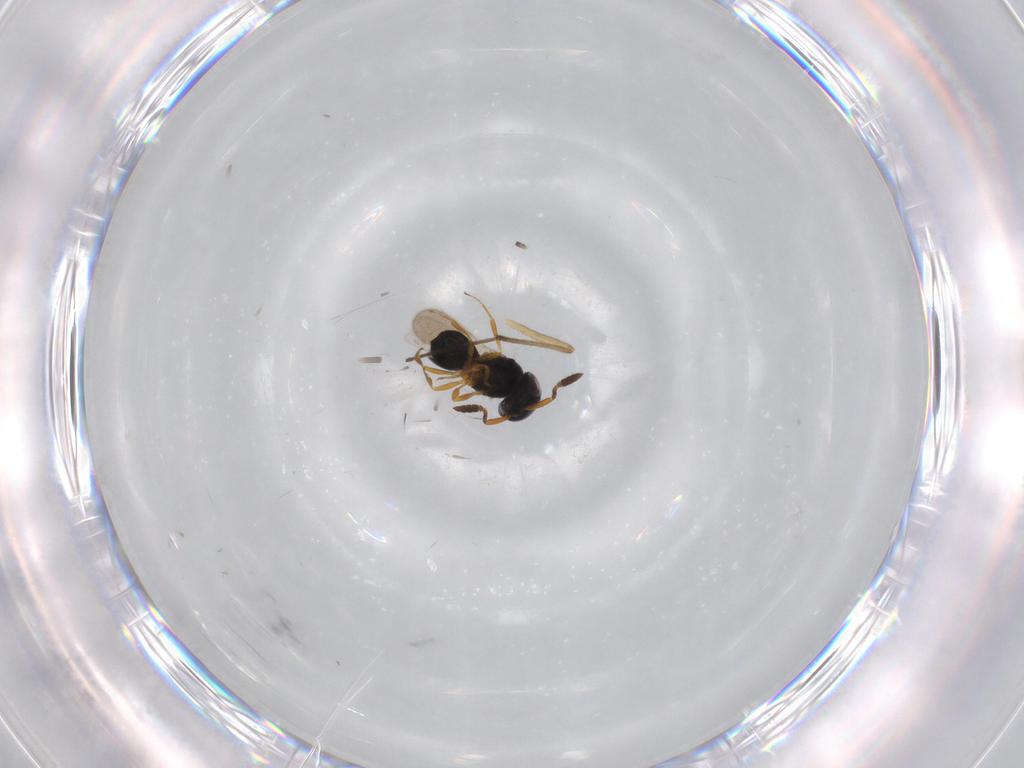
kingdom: Animalia
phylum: Arthropoda
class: Insecta
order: Hymenoptera
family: Scelionidae
